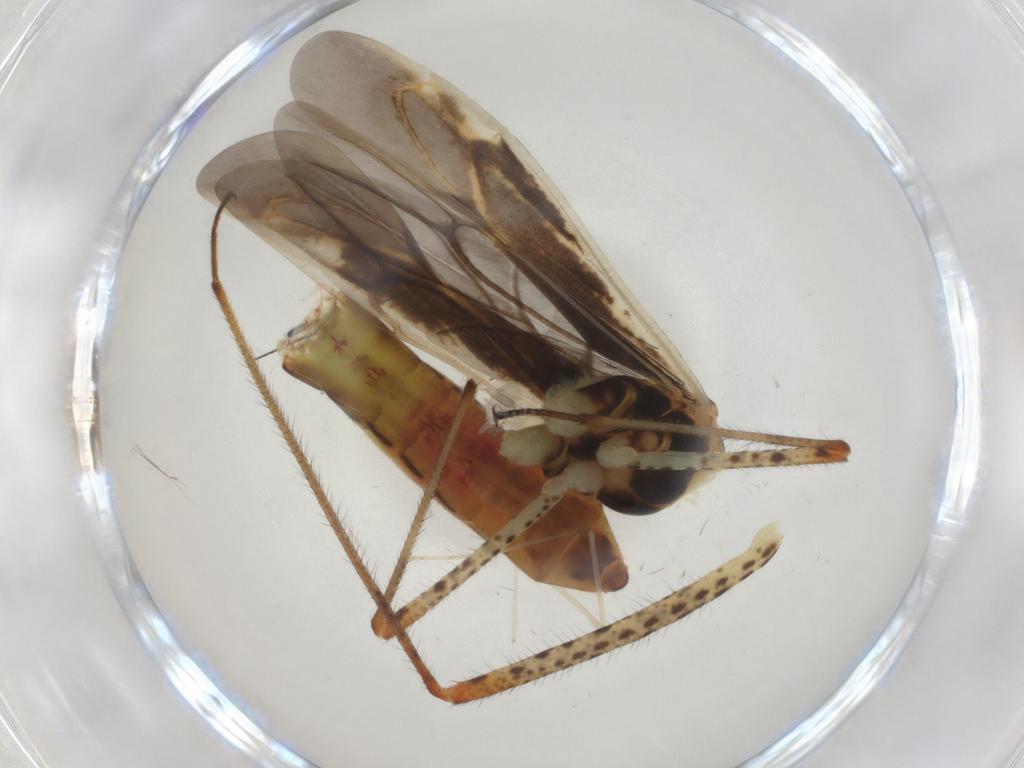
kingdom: Animalia
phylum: Arthropoda
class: Insecta
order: Hemiptera
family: Miridae
